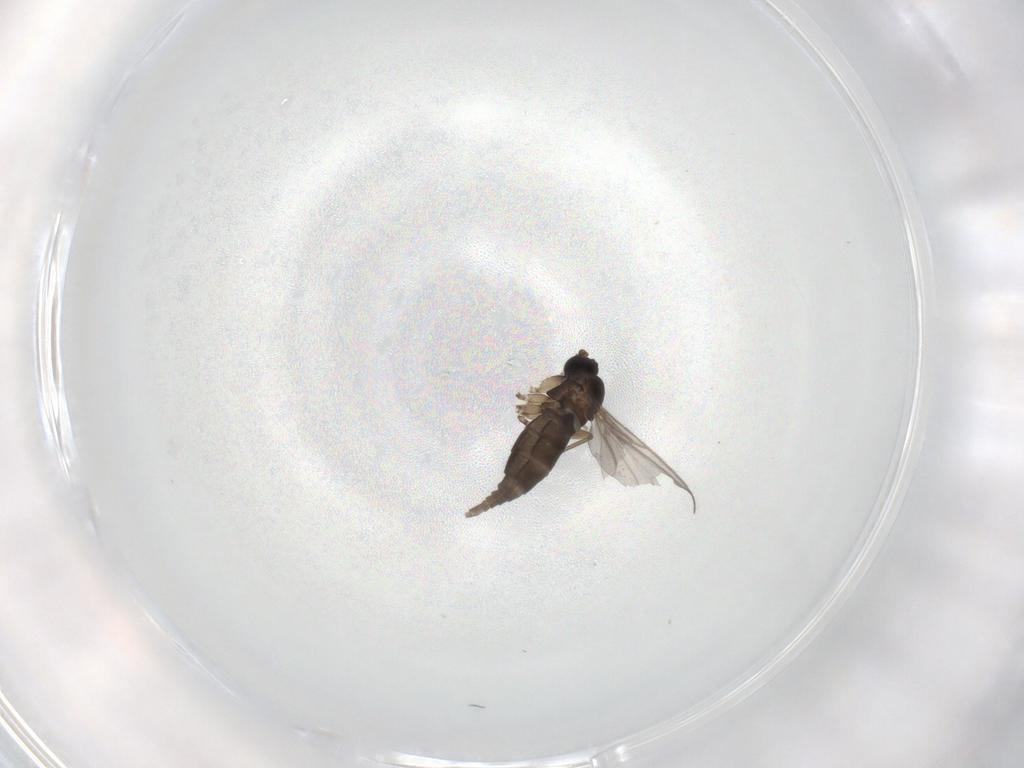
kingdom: Animalia
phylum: Arthropoda
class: Insecta
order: Diptera
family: Sciaridae
